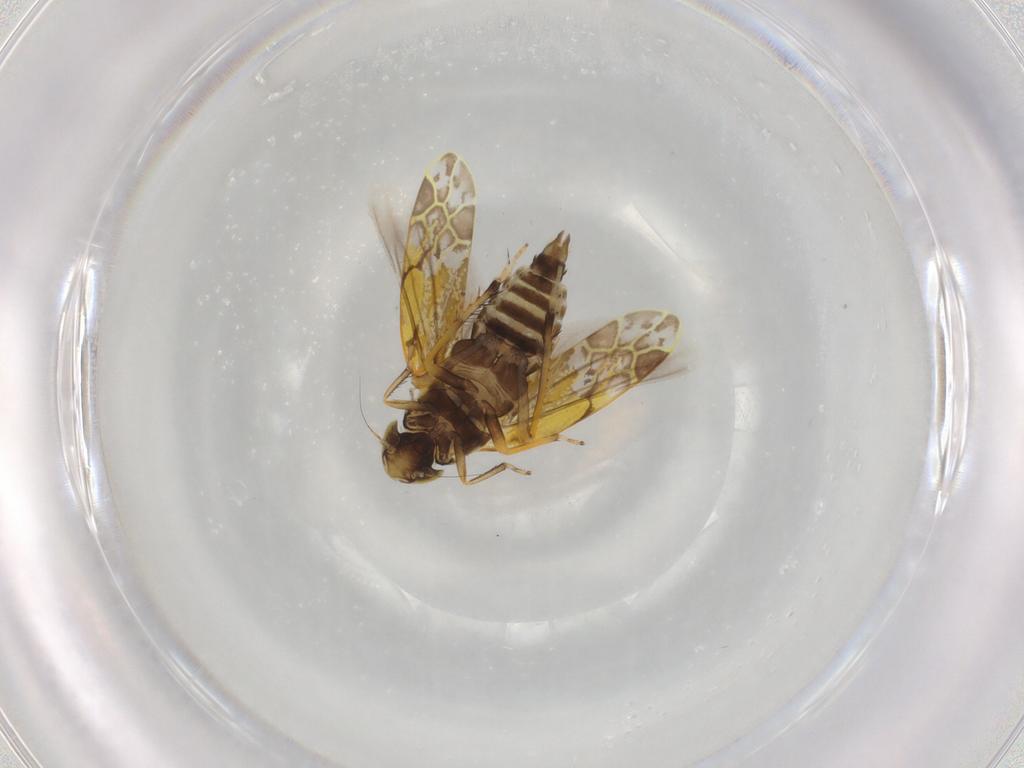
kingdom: Animalia
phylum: Arthropoda
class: Insecta
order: Hemiptera
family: Cicadellidae
